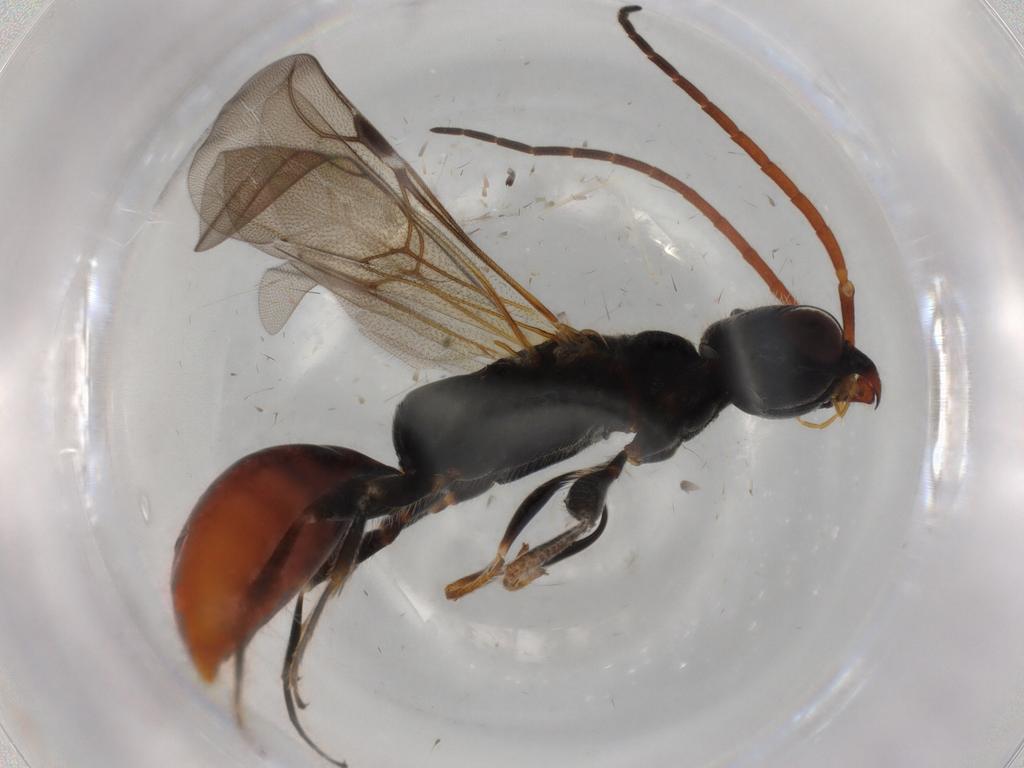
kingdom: Animalia
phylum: Arthropoda
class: Insecta
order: Hymenoptera
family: Bethylidae
